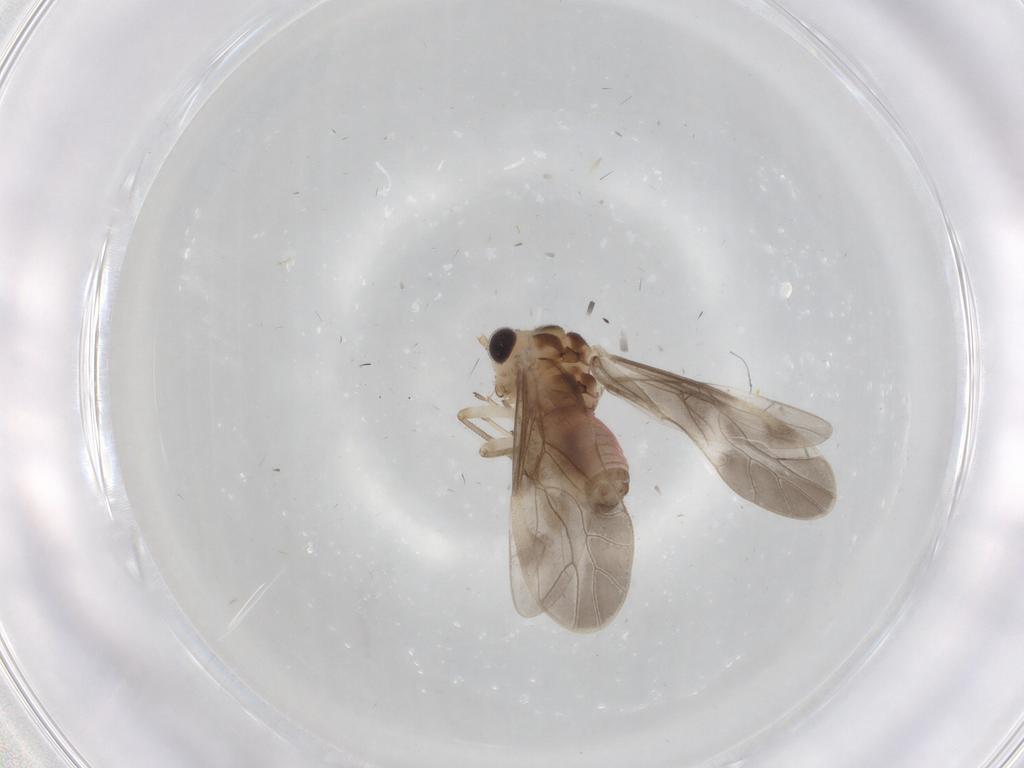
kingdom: Animalia
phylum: Arthropoda
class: Insecta
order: Psocodea
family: Caeciliusidae
